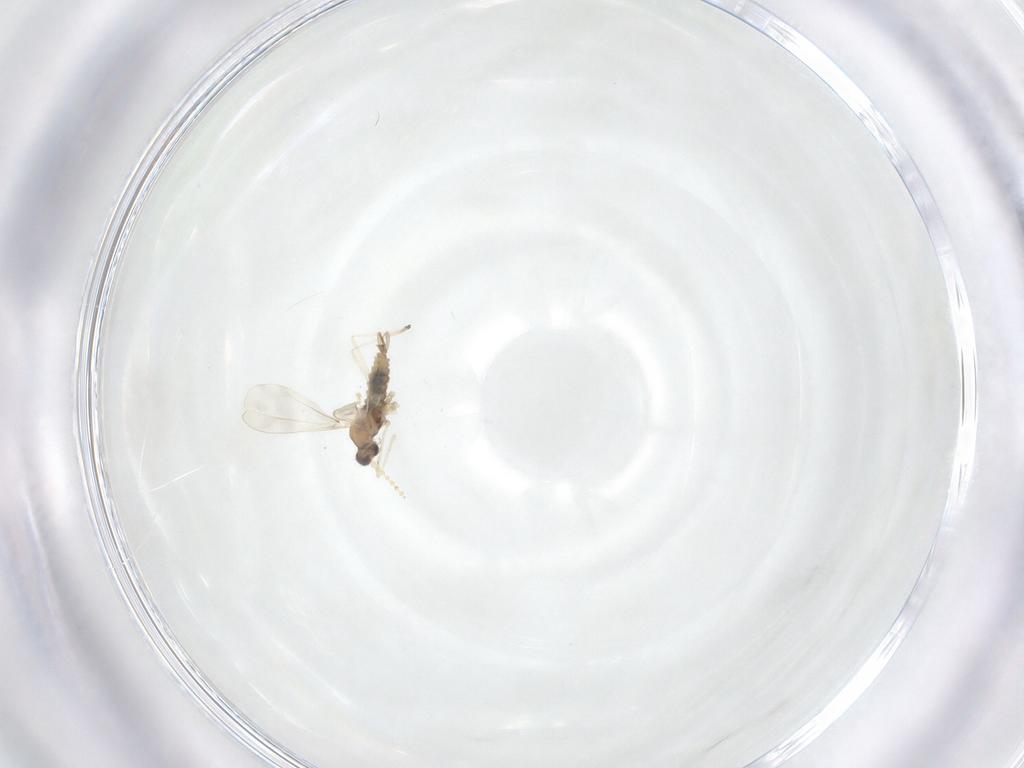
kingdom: Animalia
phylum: Arthropoda
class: Insecta
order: Diptera
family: Cecidomyiidae
